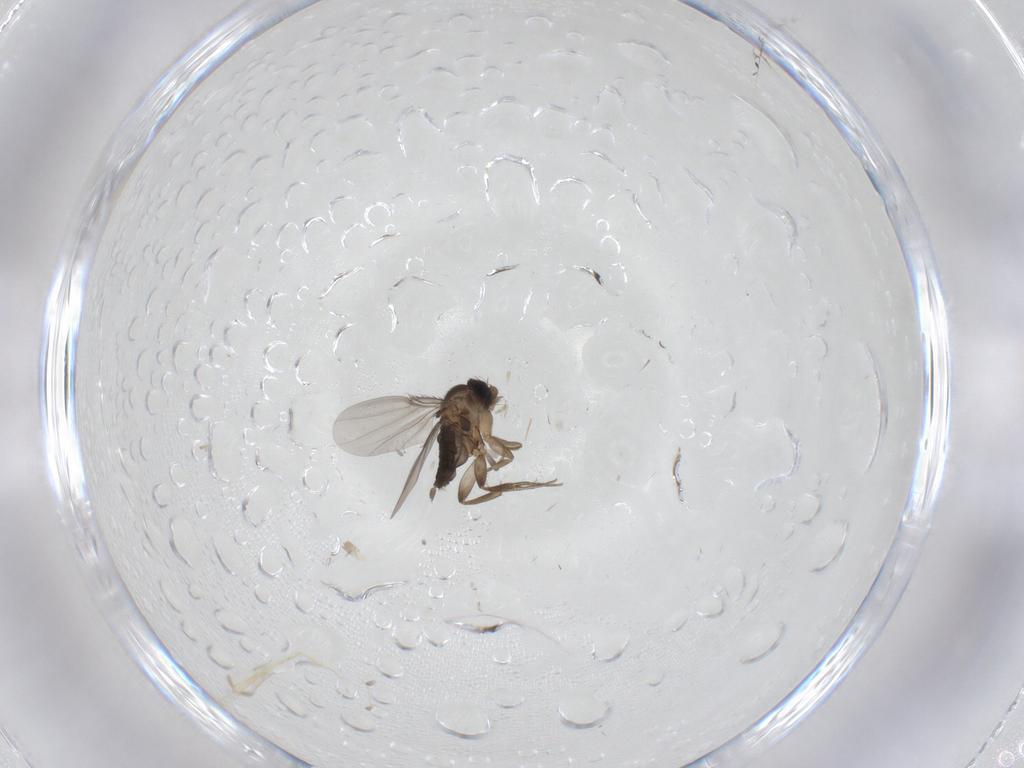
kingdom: Animalia
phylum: Arthropoda
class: Insecta
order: Diptera
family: Phoridae
